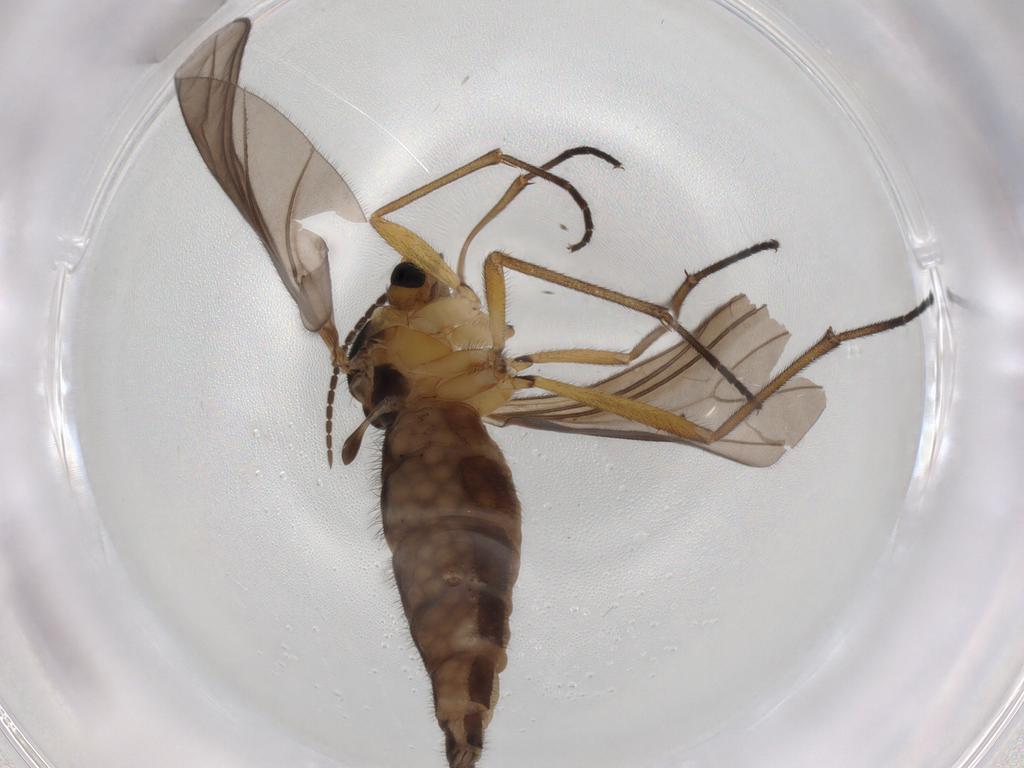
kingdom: Animalia
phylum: Arthropoda
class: Insecta
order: Diptera
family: Sciaridae
